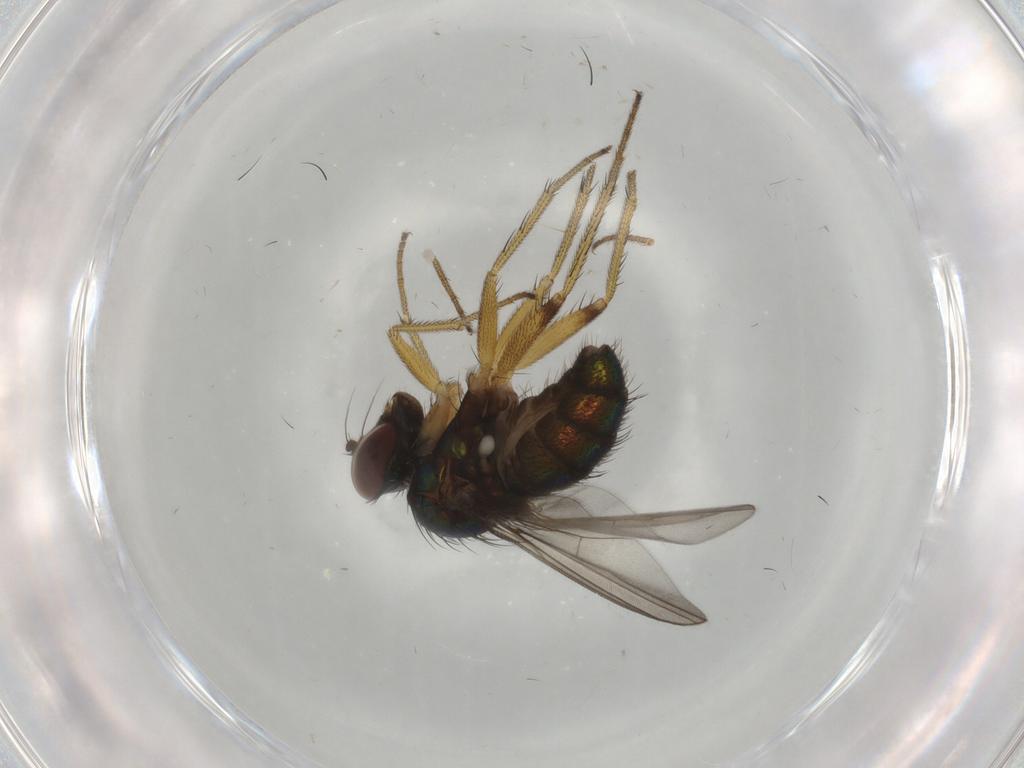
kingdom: Animalia
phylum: Arthropoda
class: Insecta
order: Diptera
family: Dolichopodidae
